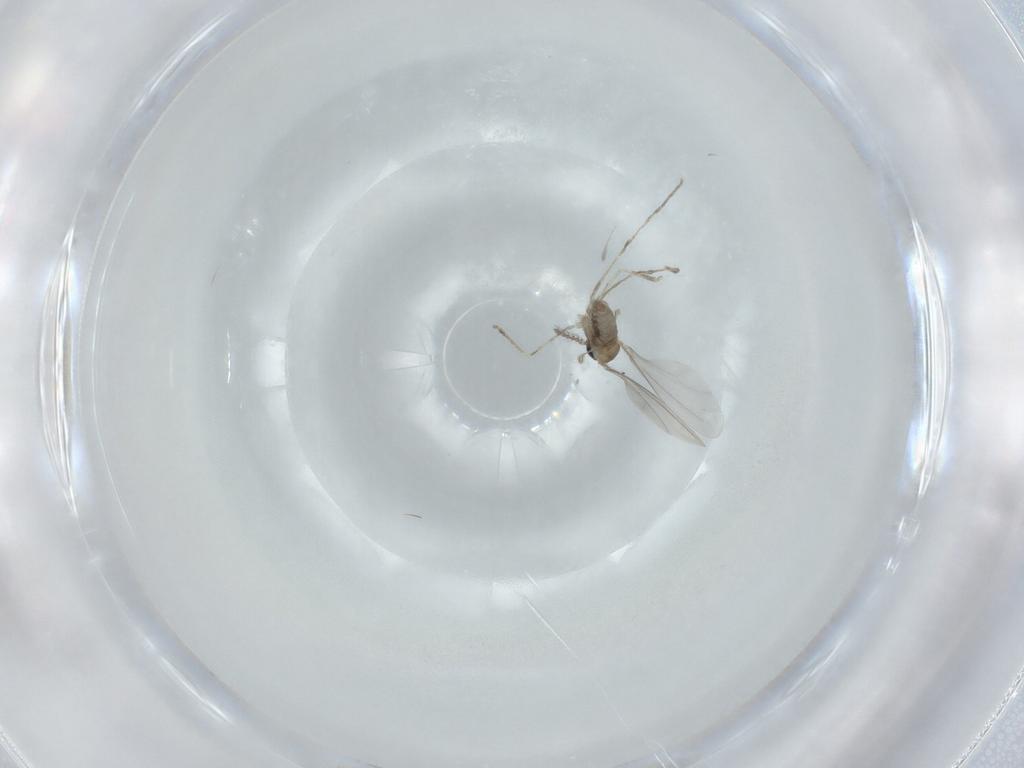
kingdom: Animalia
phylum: Arthropoda
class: Insecta
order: Diptera
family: Cecidomyiidae
